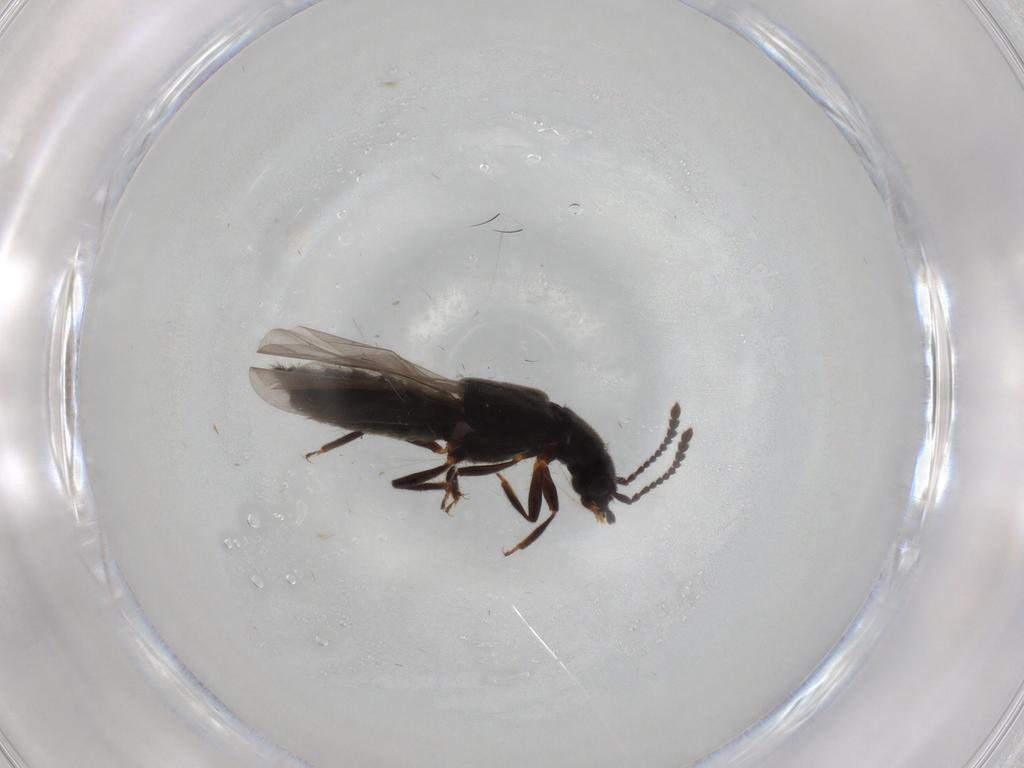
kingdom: Animalia
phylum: Arthropoda
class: Insecta
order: Coleoptera
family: Staphylinidae
